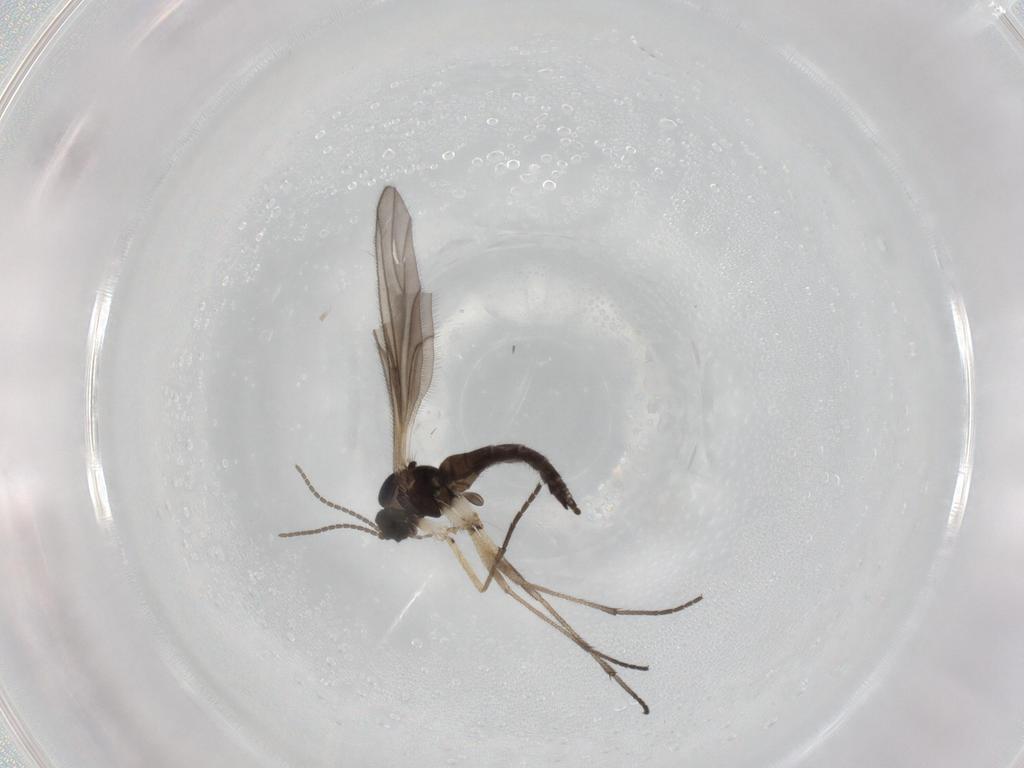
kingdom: Animalia
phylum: Arthropoda
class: Insecta
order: Diptera
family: Sciaridae
